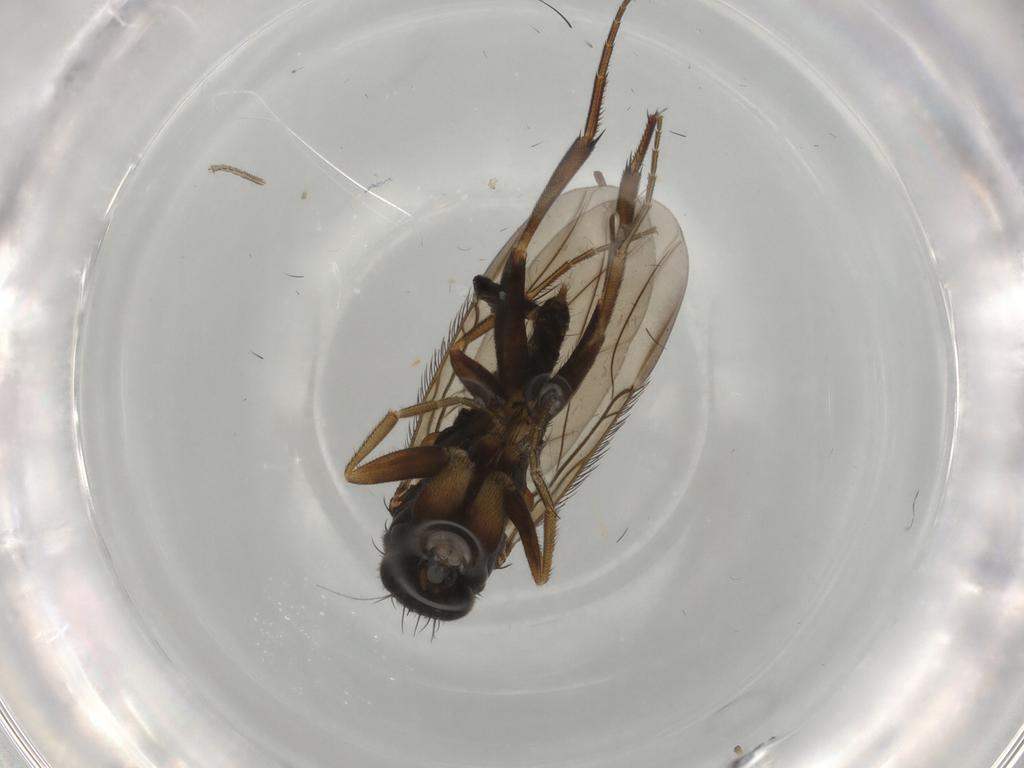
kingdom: Animalia
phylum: Arthropoda
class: Insecta
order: Diptera
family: Phoridae
